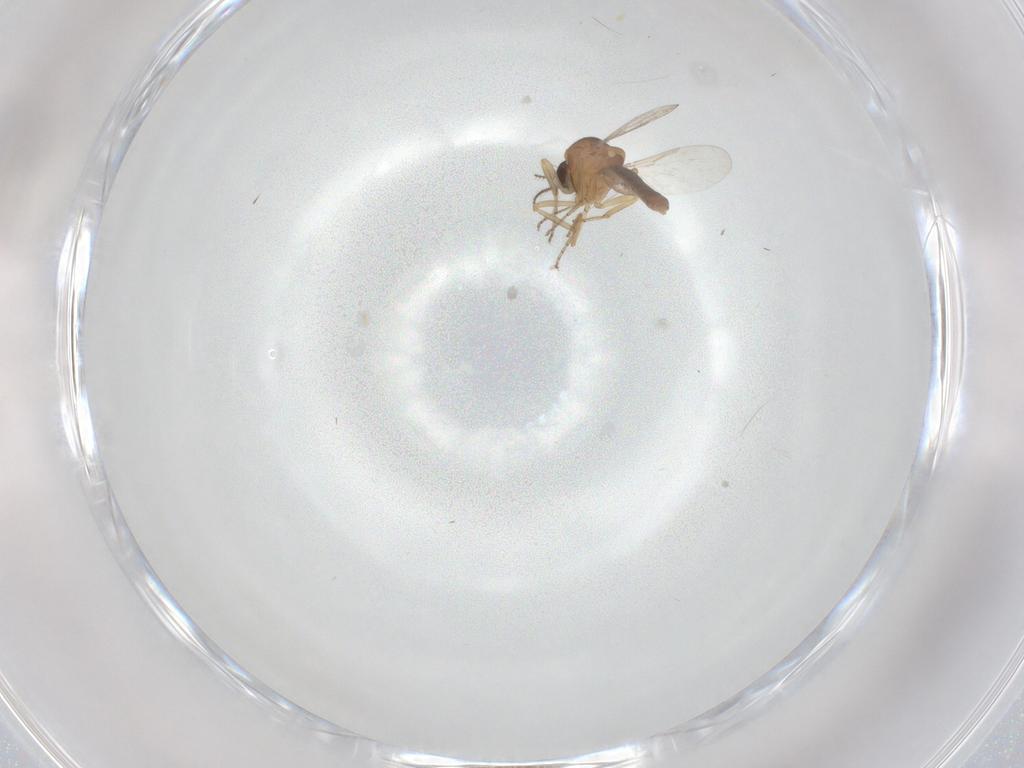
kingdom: Animalia
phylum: Arthropoda
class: Insecta
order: Diptera
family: Ceratopogonidae
